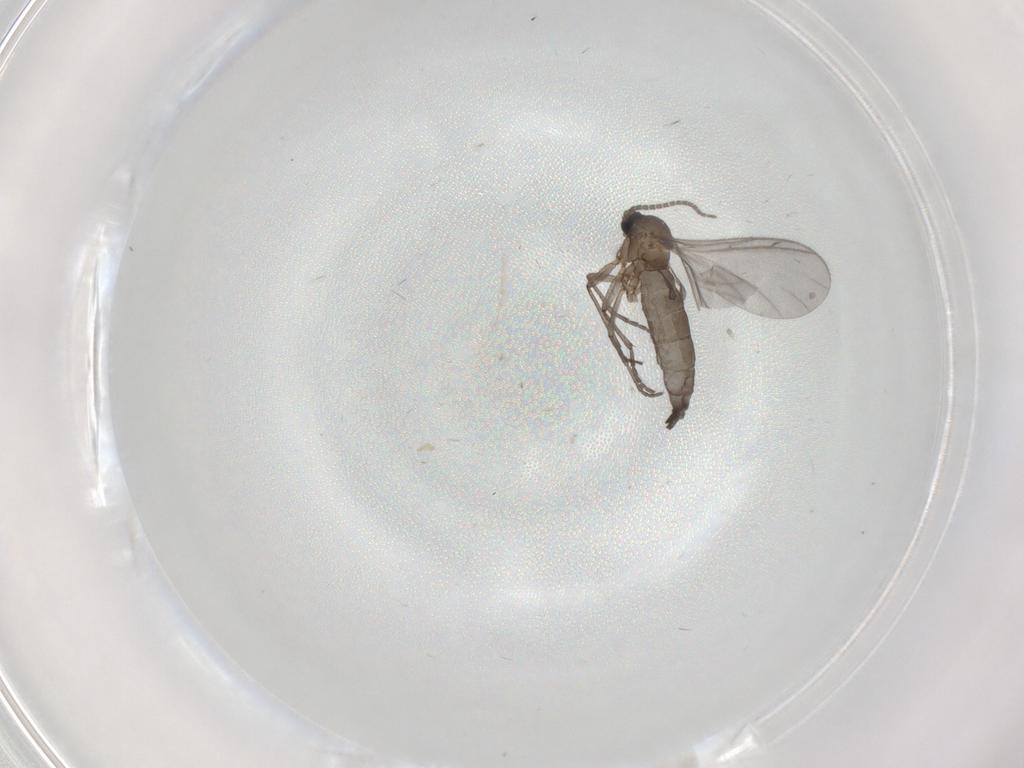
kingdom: Animalia
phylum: Arthropoda
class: Insecta
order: Diptera
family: Sciaridae
